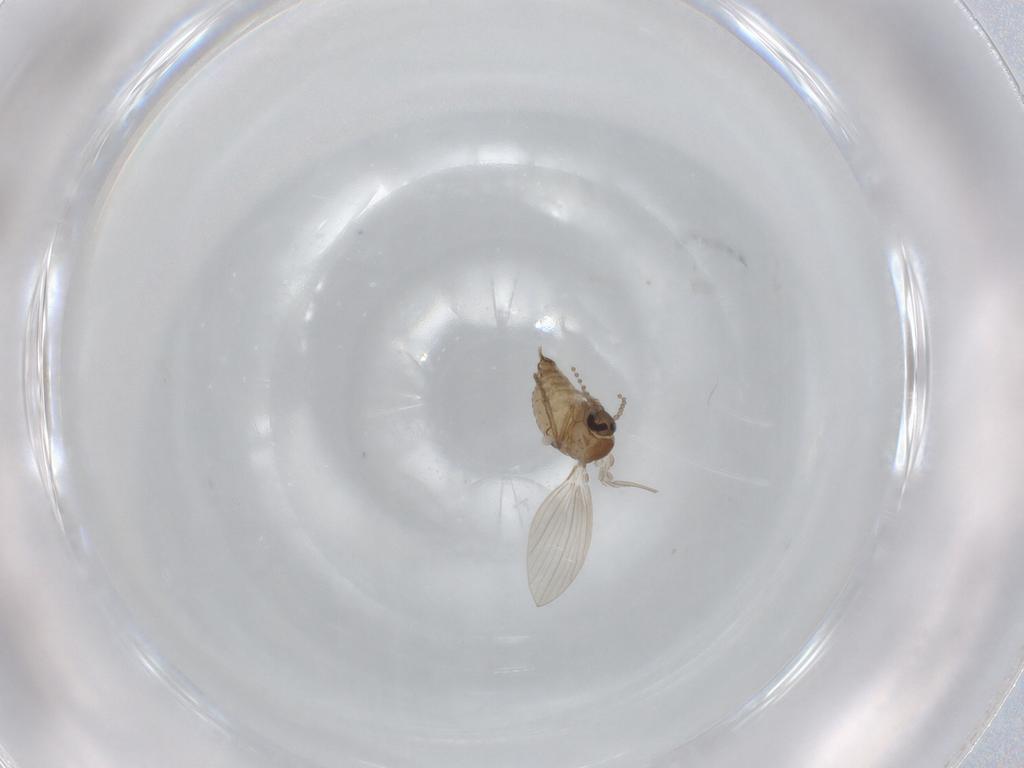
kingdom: Animalia
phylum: Arthropoda
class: Insecta
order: Diptera
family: Psychodidae
